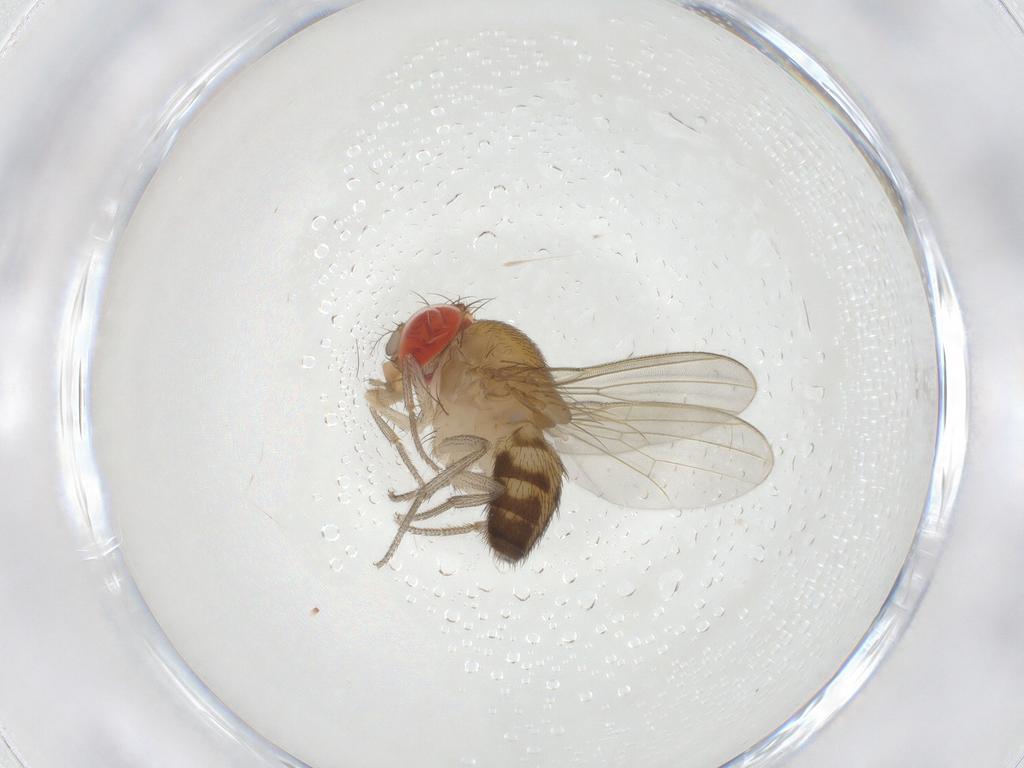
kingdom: Animalia
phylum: Arthropoda
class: Insecta
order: Diptera
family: Drosophilidae
